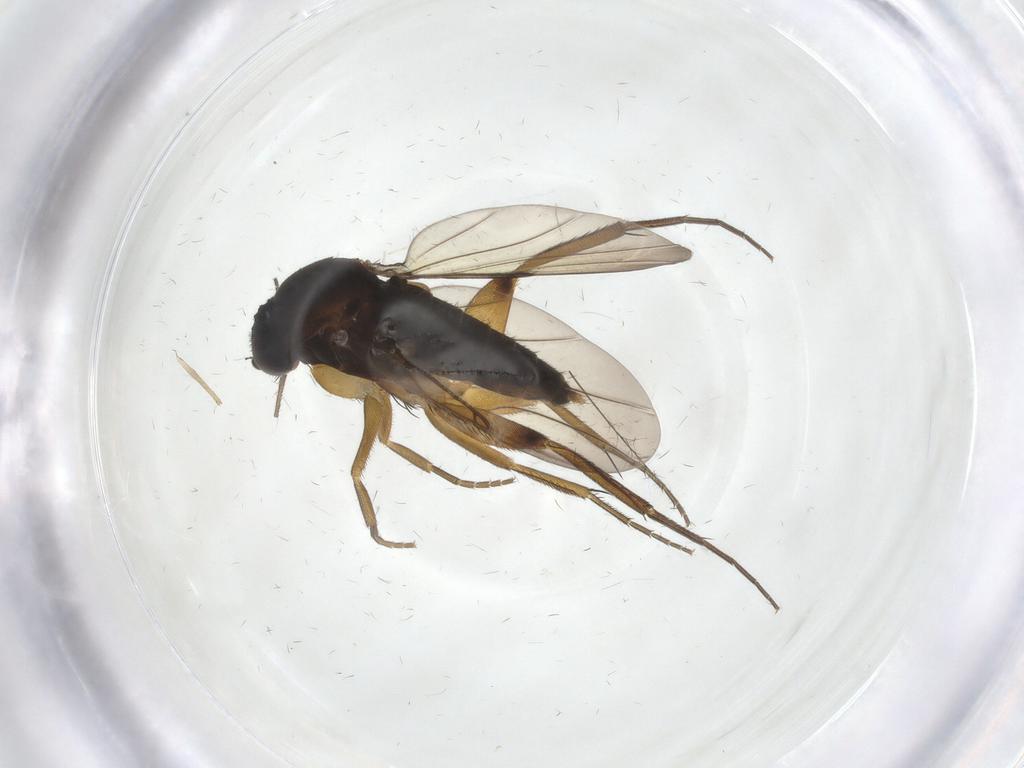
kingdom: Animalia
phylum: Arthropoda
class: Insecta
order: Diptera
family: Phoridae
